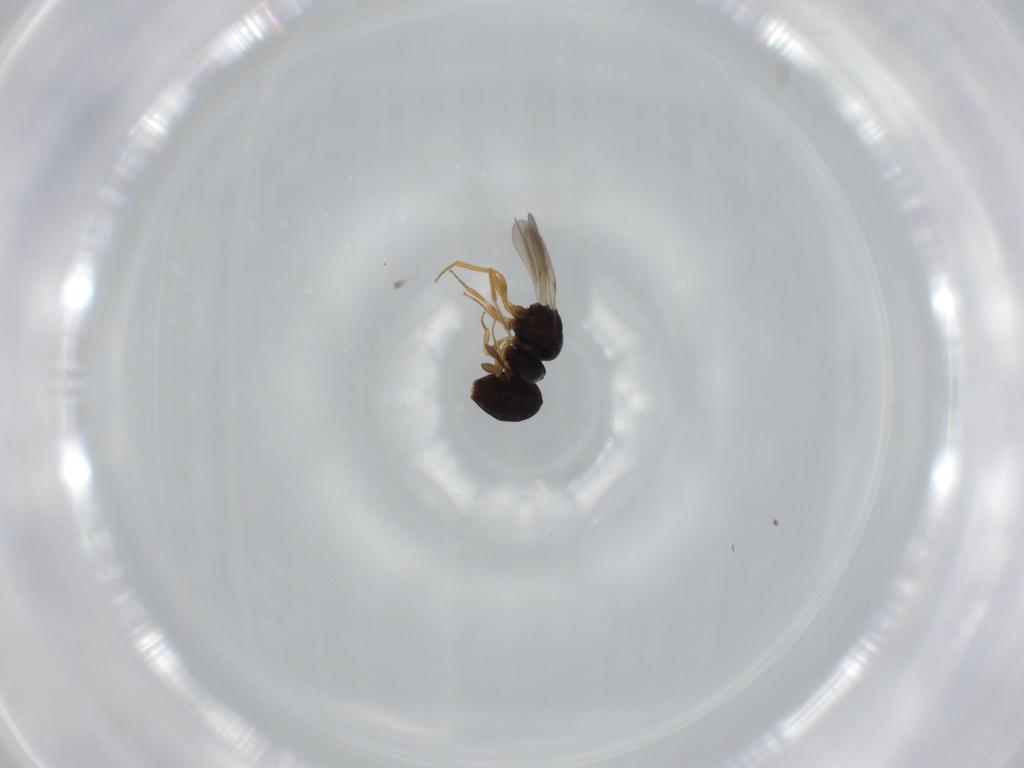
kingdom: Animalia
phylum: Arthropoda
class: Insecta
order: Hymenoptera
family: Scelionidae
